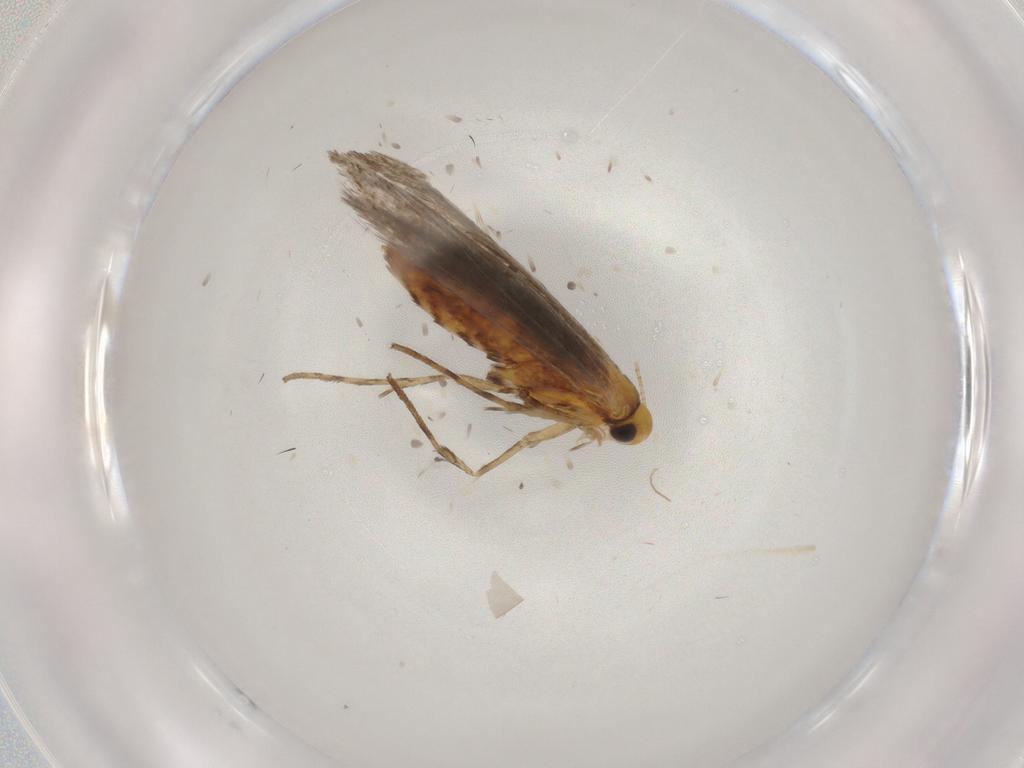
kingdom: Animalia
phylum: Arthropoda
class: Insecta
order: Lepidoptera
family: Gracillariidae
